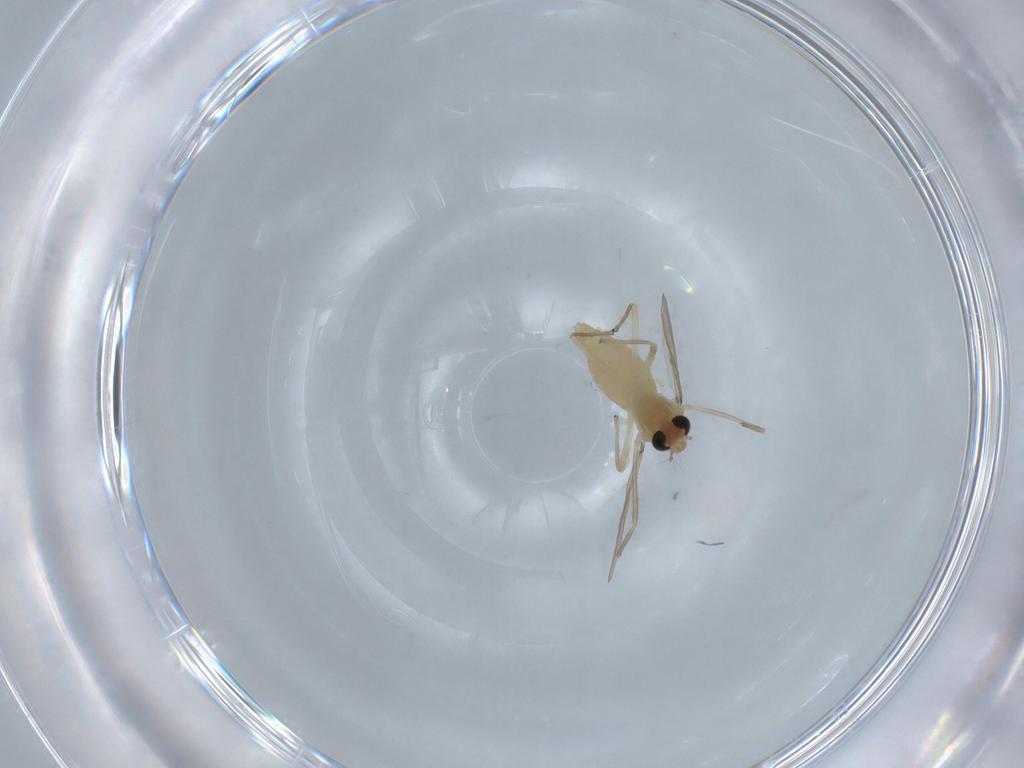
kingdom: Animalia
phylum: Arthropoda
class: Insecta
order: Diptera
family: Chironomidae
